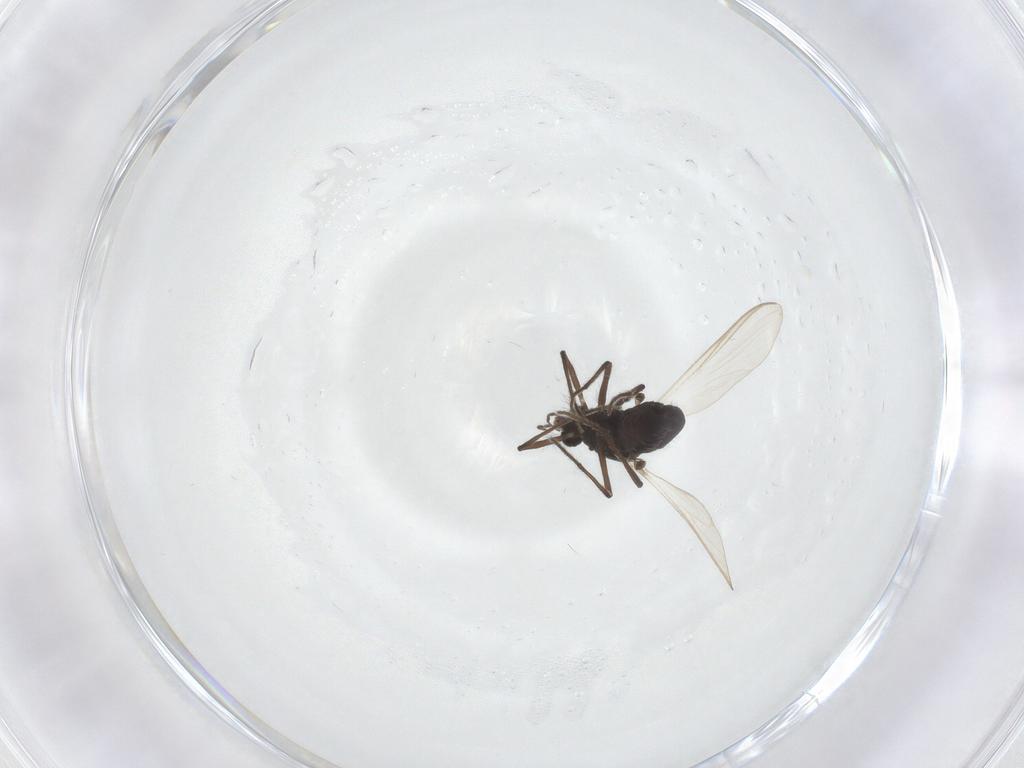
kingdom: Animalia
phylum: Arthropoda
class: Insecta
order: Diptera
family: Chironomidae
